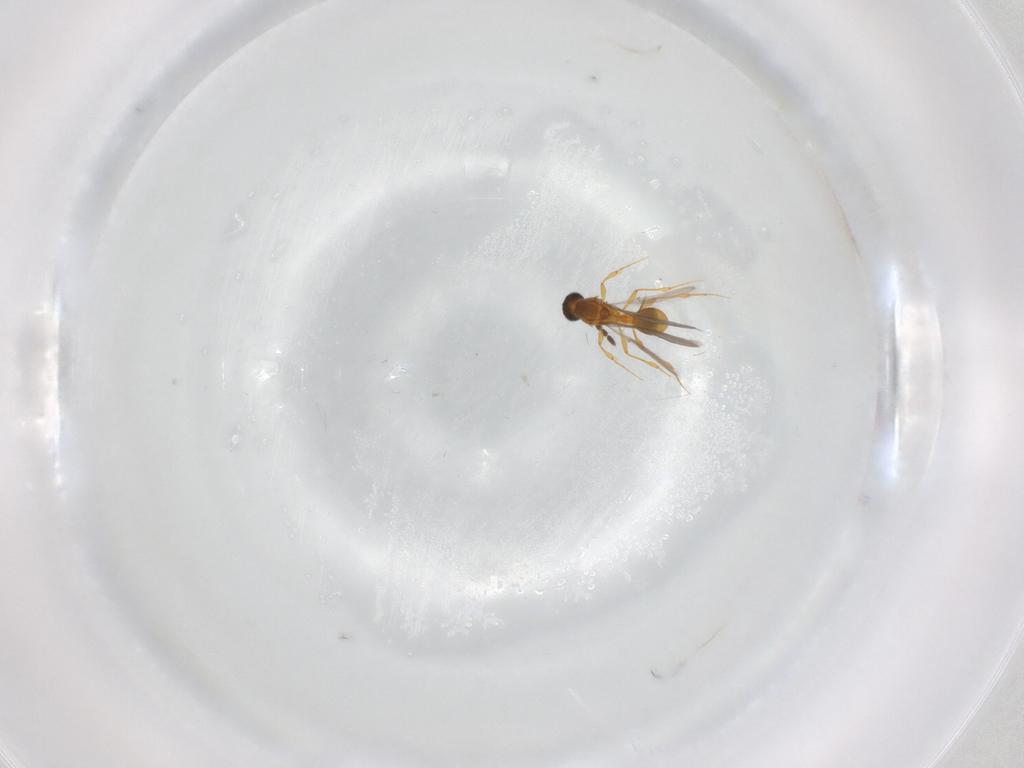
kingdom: Animalia
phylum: Arthropoda
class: Insecta
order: Hymenoptera
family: Platygastridae
